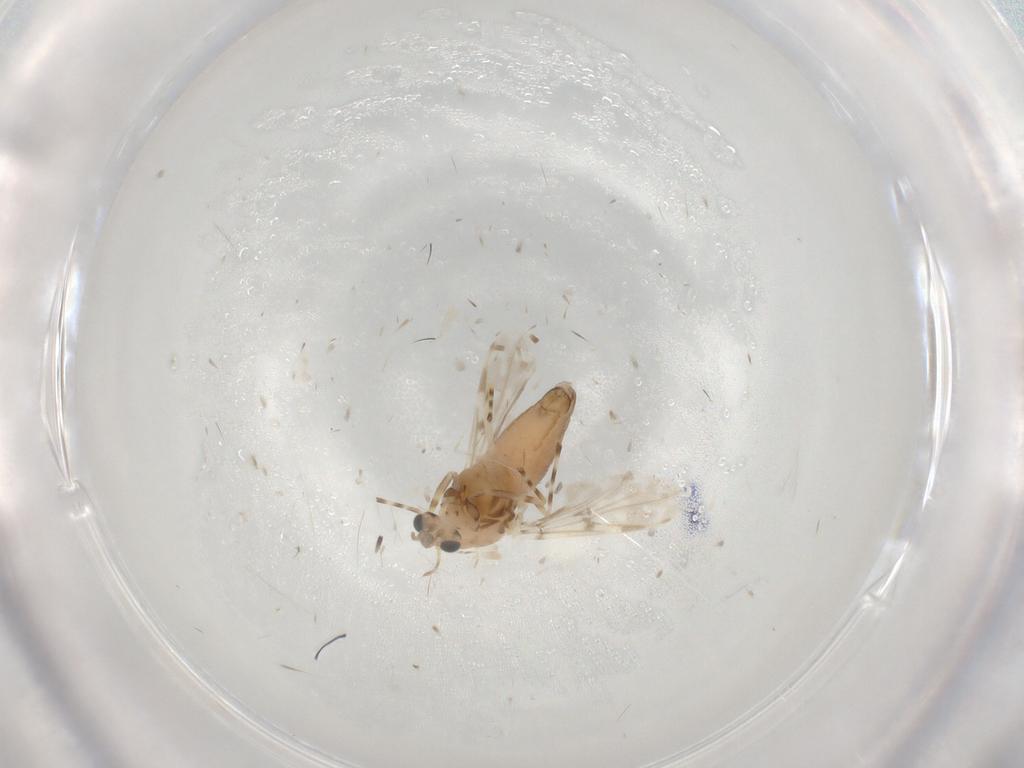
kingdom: Animalia
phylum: Arthropoda
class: Insecta
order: Diptera
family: Chironomidae
